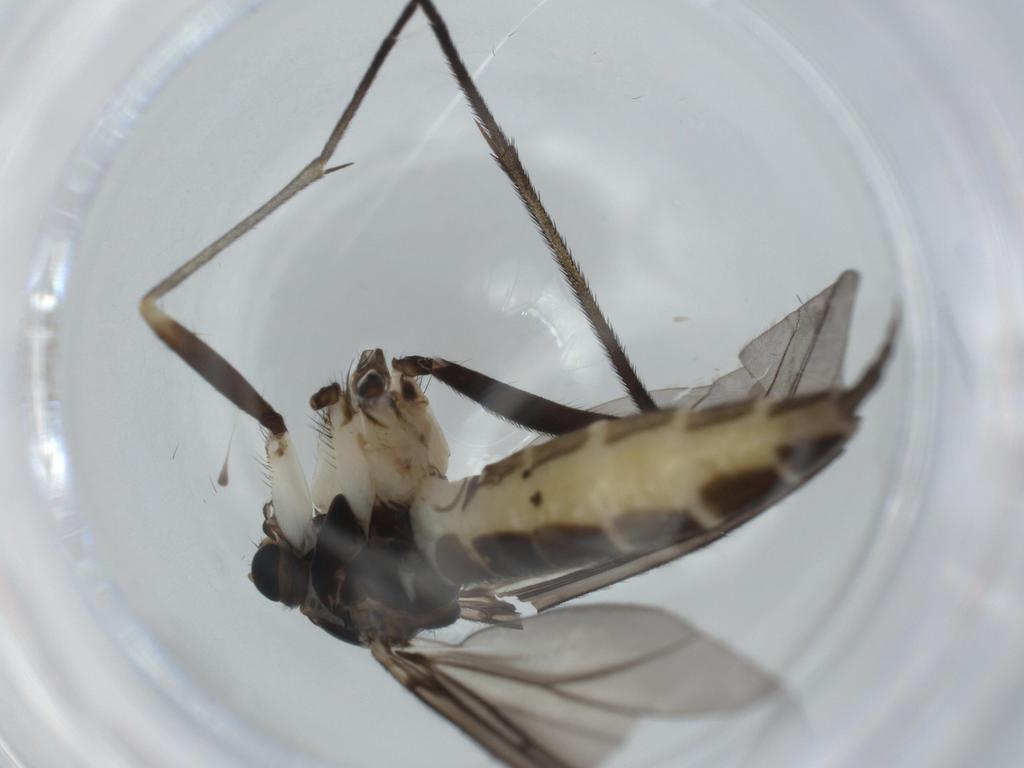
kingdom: Animalia
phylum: Arthropoda
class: Insecta
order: Diptera
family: Sciaridae
